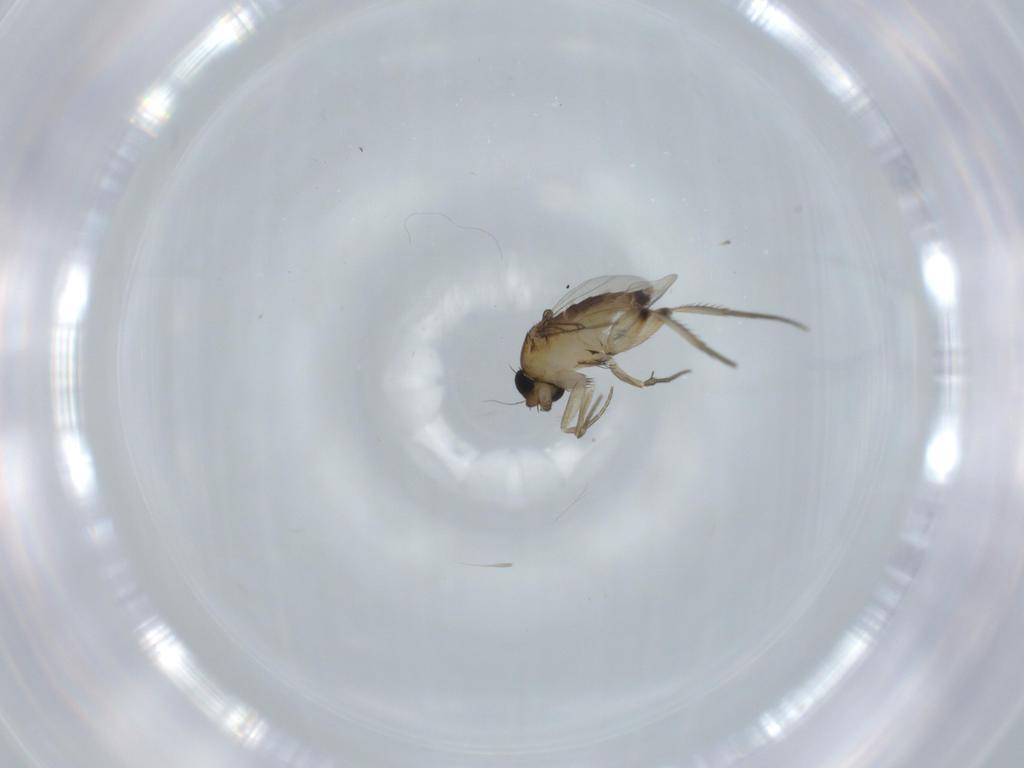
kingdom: Animalia
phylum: Arthropoda
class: Insecta
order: Diptera
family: Phoridae
